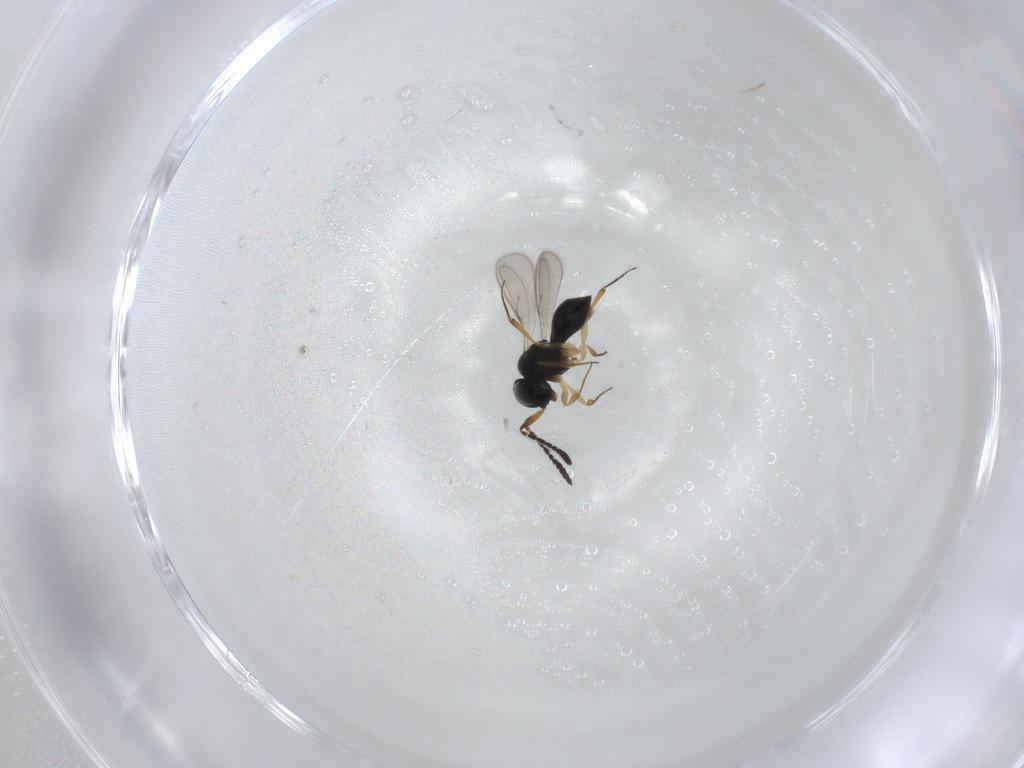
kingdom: Animalia
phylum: Arthropoda
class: Insecta
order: Hymenoptera
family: Scelionidae
